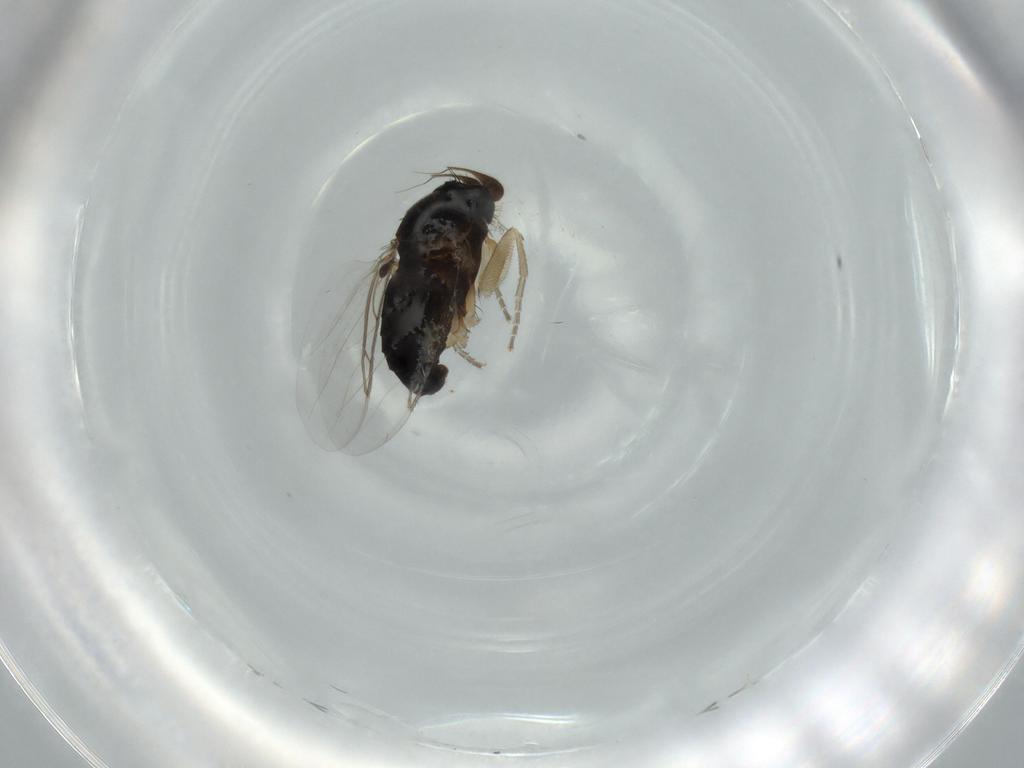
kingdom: Animalia
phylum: Arthropoda
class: Insecta
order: Diptera
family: Phoridae
